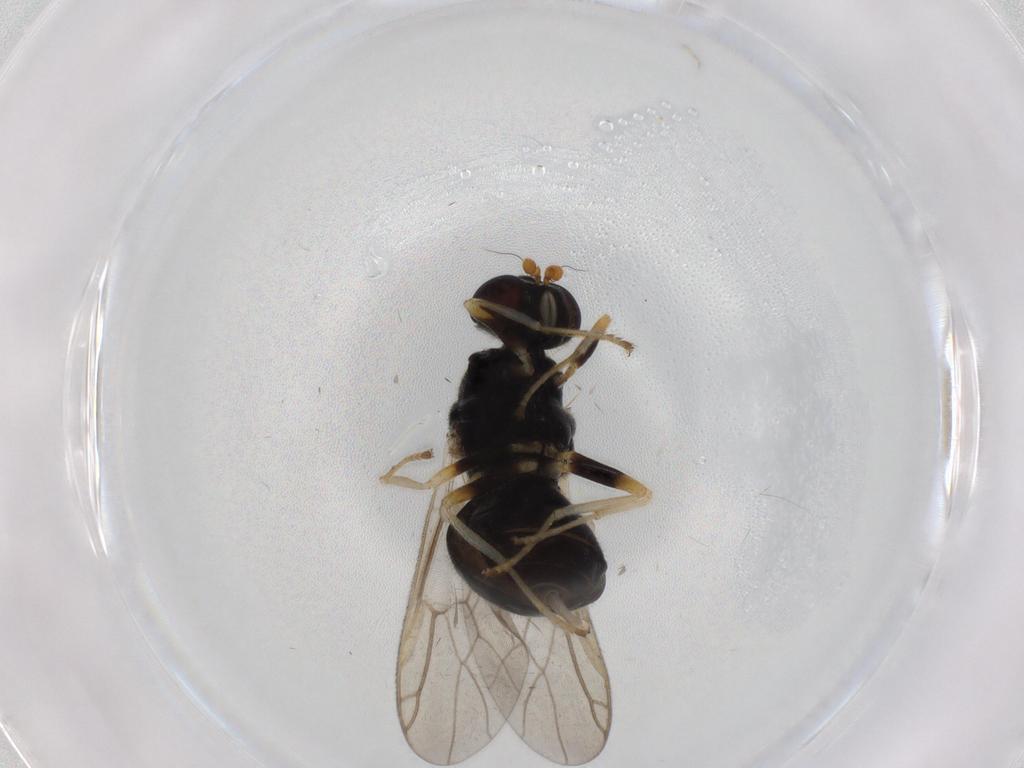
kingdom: Animalia
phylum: Arthropoda
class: Insecta
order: Diptera
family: Stratiomyidae
